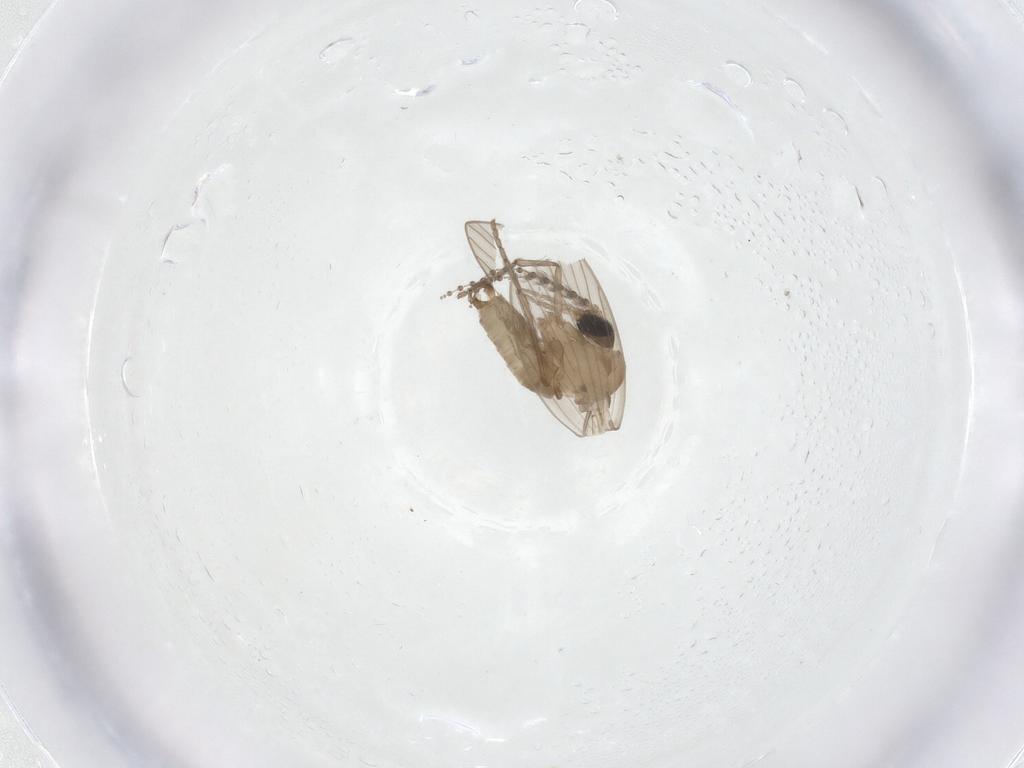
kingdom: Animalia
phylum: Arthropoda
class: Insecta
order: Diptera
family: Psychodidae
